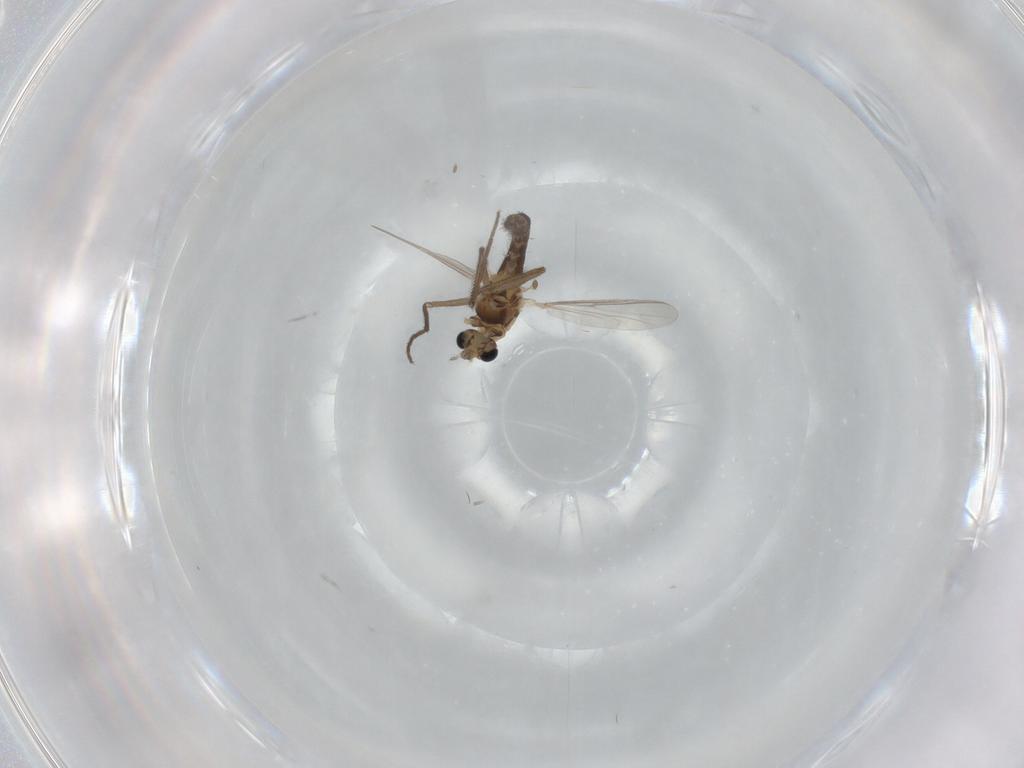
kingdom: Animalia
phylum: Arthropoda
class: Insecta
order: Diptera
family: Chironomidae
